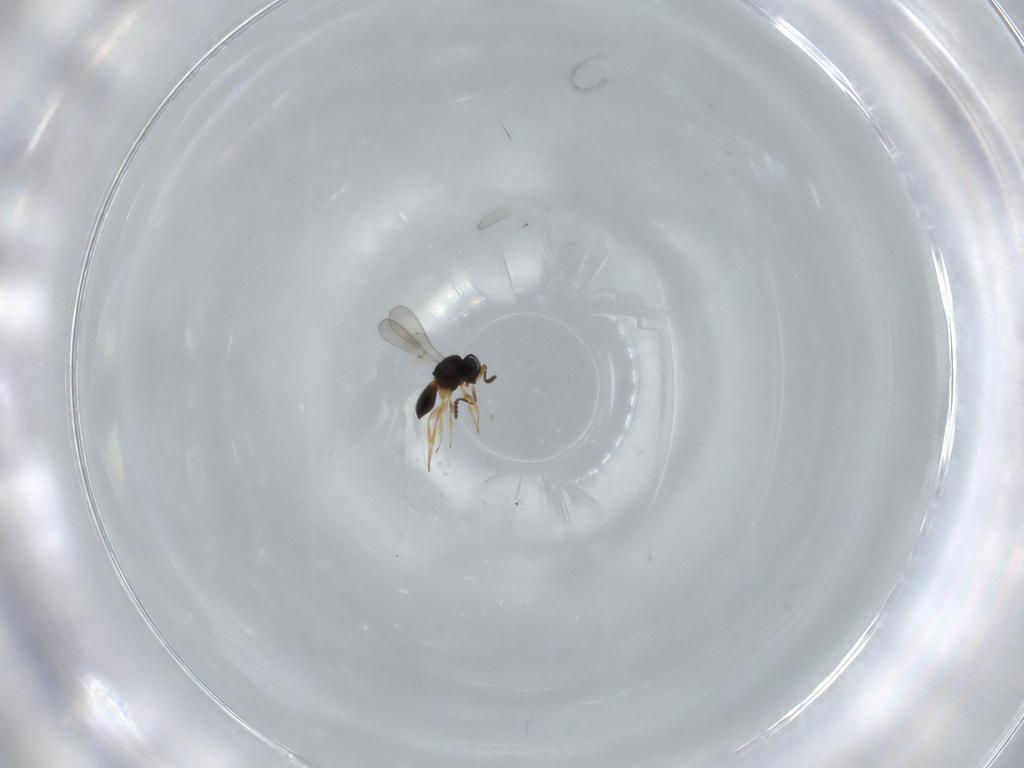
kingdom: Animalia
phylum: Arthropoda
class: Insecta
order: Hymenoptera
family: Scelionidae
